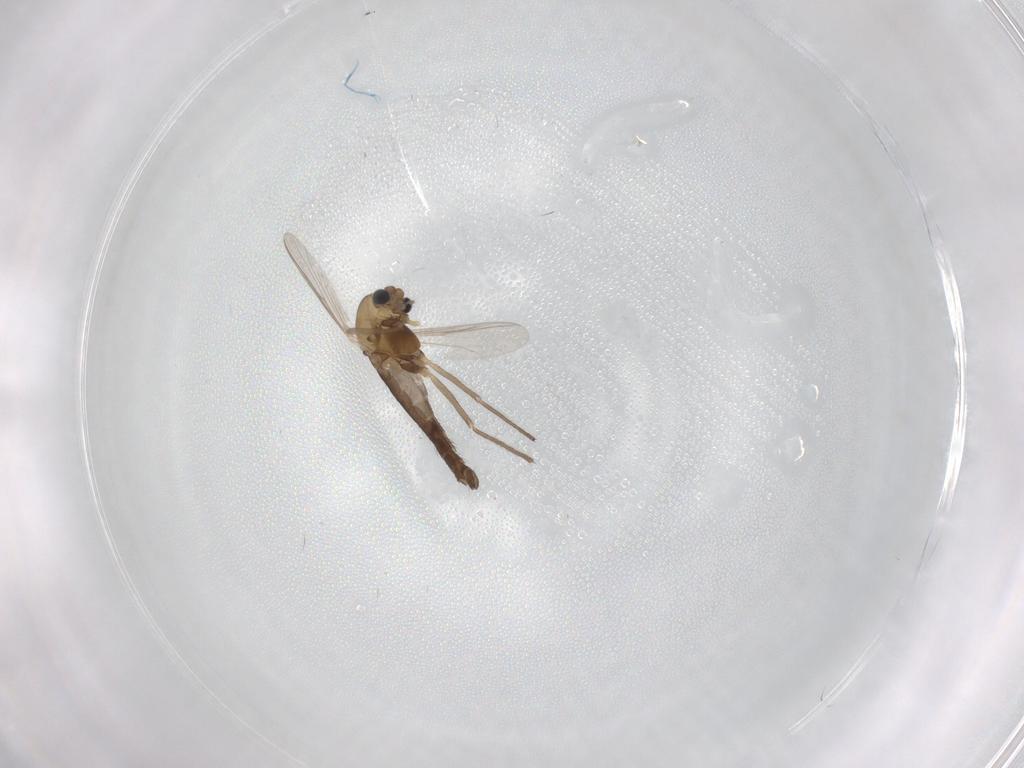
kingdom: Animalia
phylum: Arthropoda
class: Insecta
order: Diptera
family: Chironomidae
